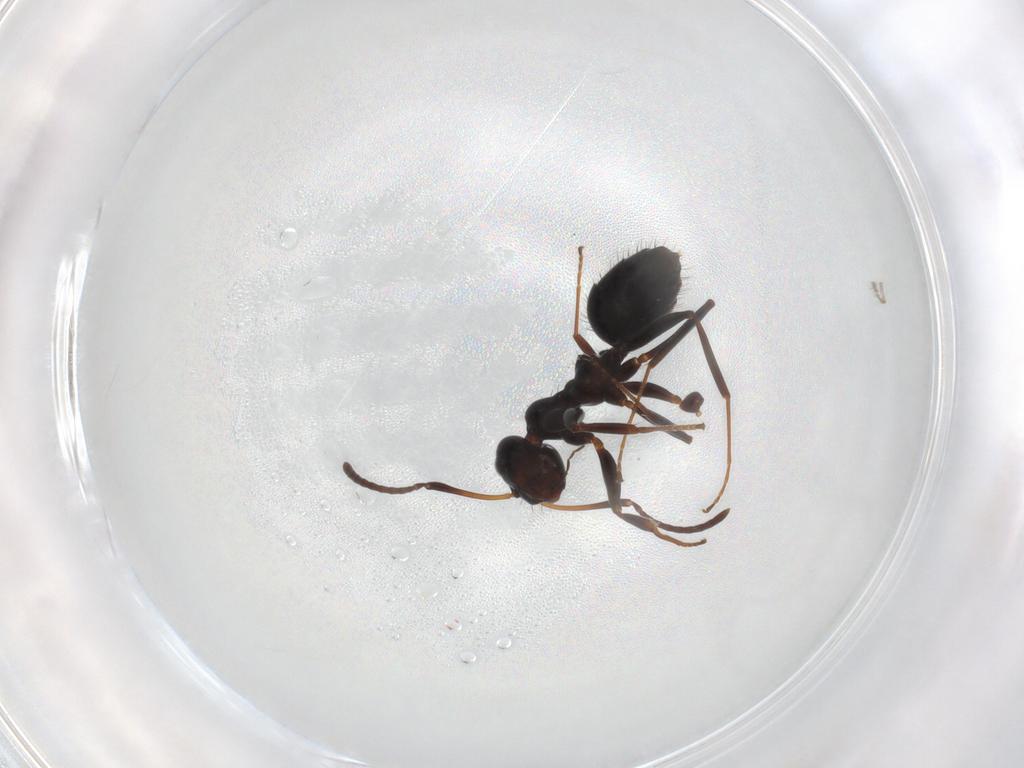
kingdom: Animalia
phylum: Arthropoda
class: Insecta
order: Hymenoptera
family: Formicidae
